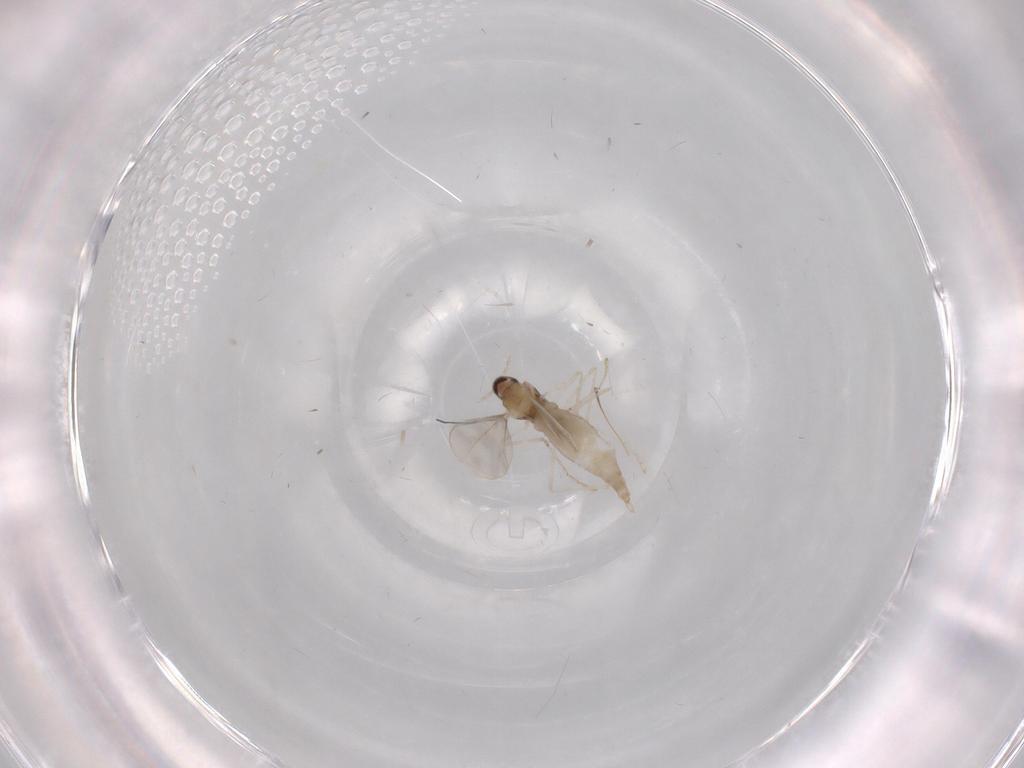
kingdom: Animalia
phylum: Arthropoda
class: Insecta
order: Diptera
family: Cecidomyiidae
